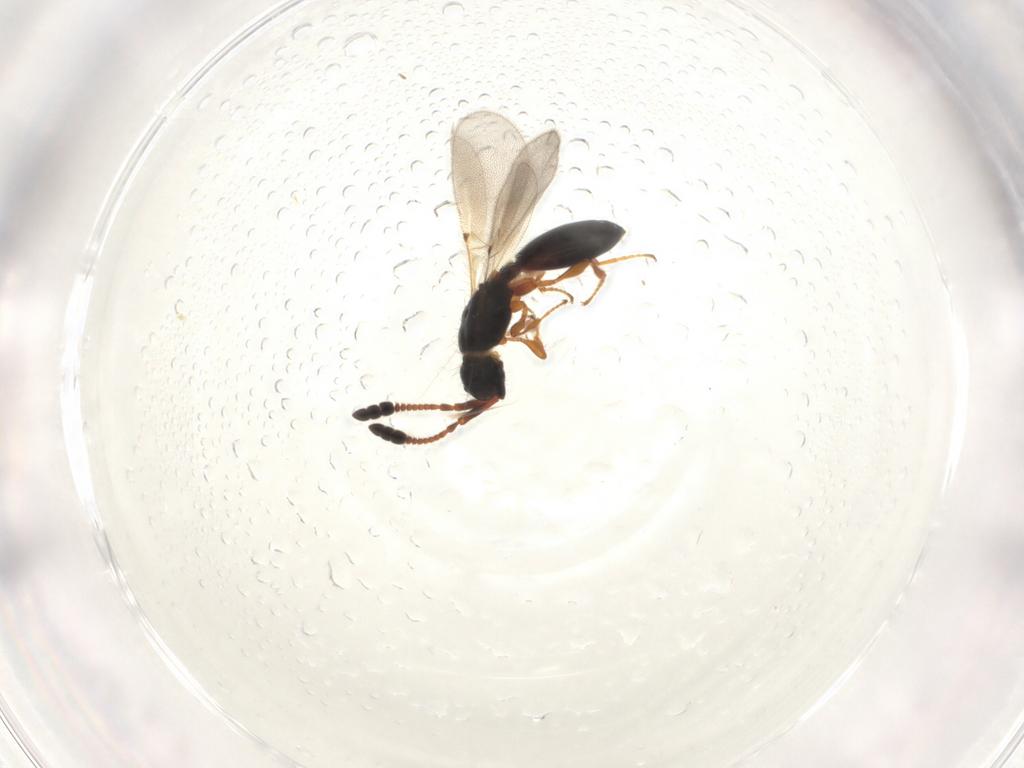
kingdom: Animalia
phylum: Arthropoda
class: Insecta
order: Hymenoptera
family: Diapriidae
